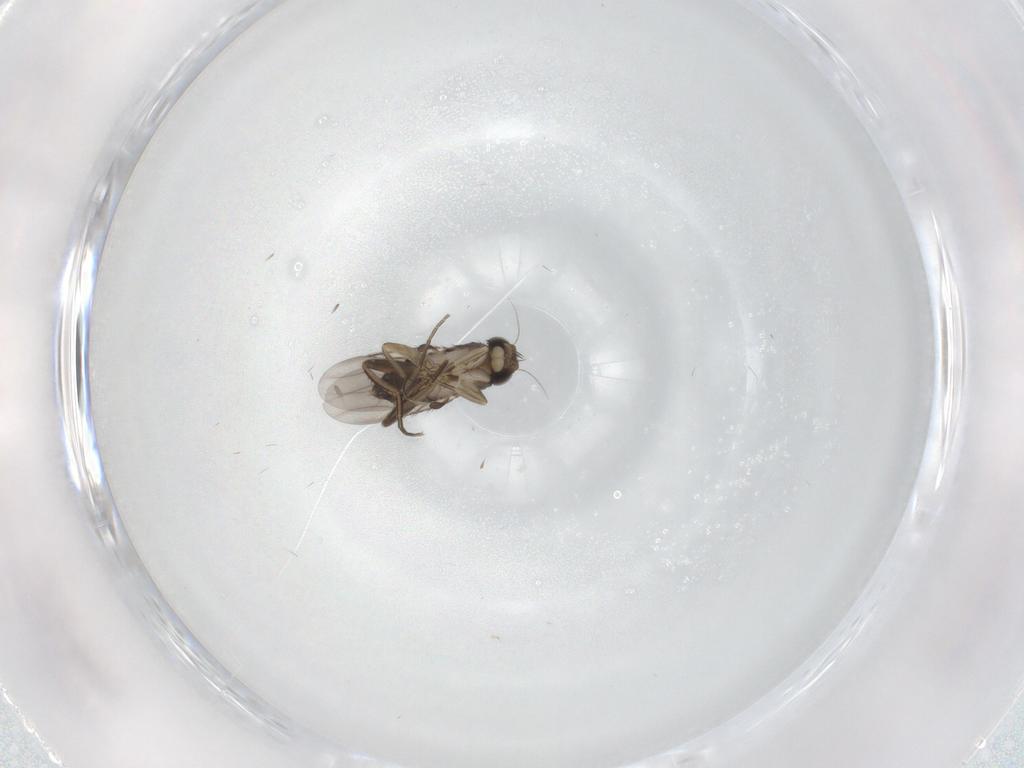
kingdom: Animalia
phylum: Arthropoda
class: Insecta
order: Diptera
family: Phoridae
